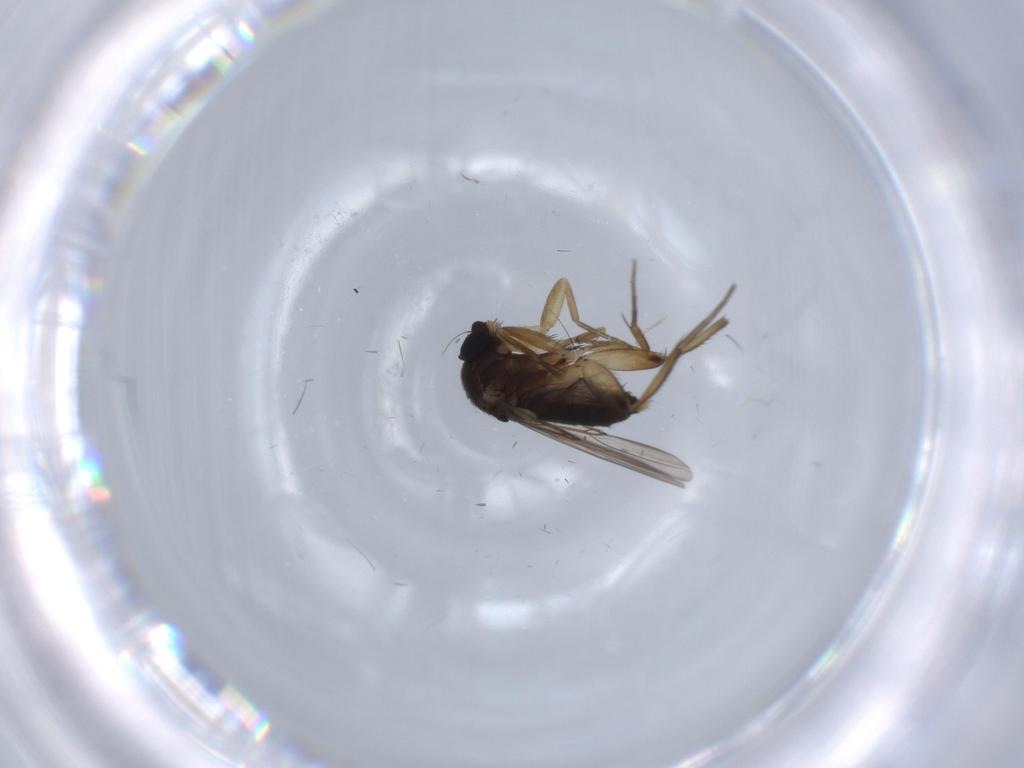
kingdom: Animalia
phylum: Arthropoda
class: Insecta
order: Diptera
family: Phoridae
